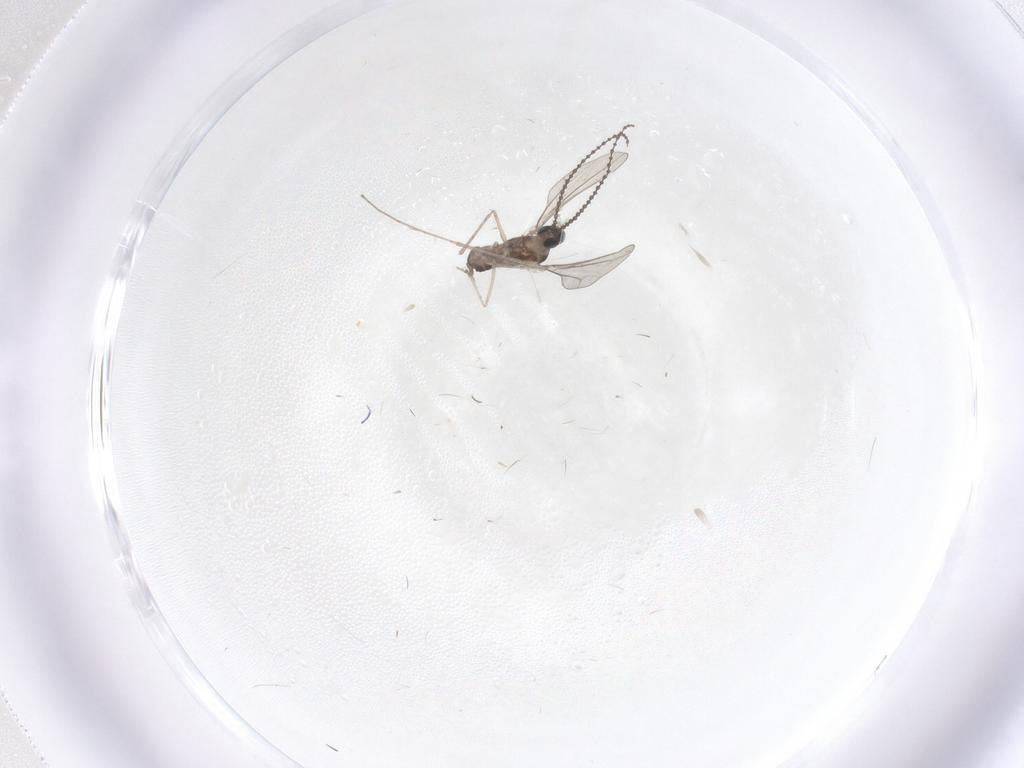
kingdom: Animalia
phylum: Arthropoda
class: Insecta
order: Diptera
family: Cecidomyiidae
